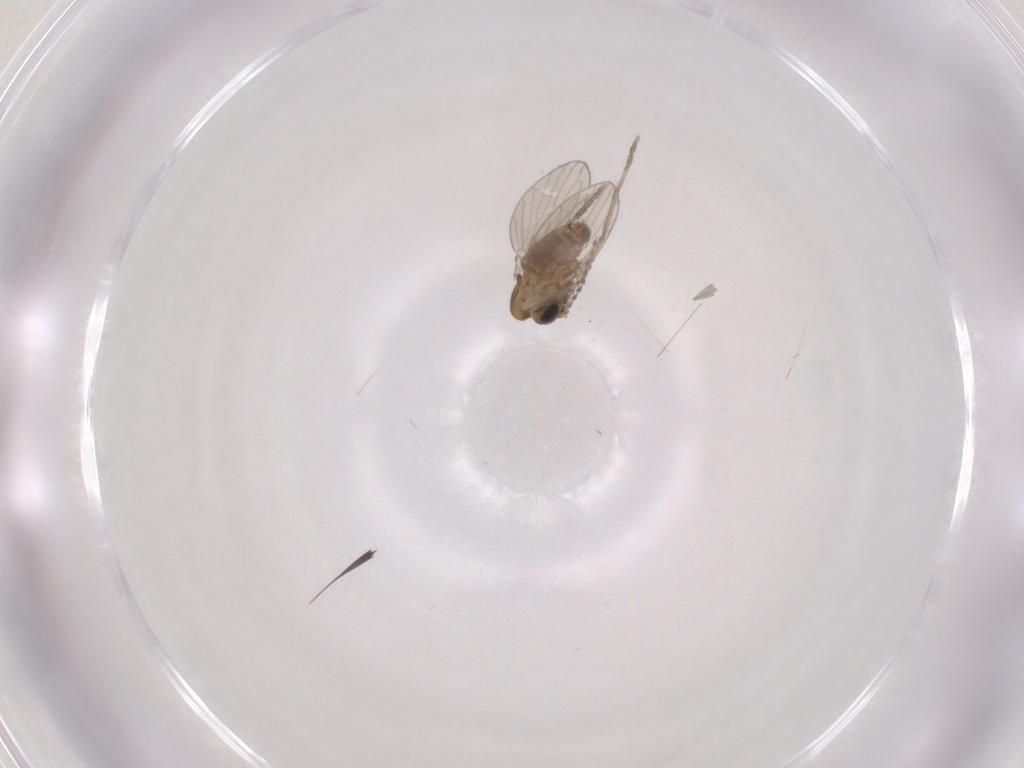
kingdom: Animalia
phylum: Arthropoda
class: Insecta
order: Diptera
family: Psychodidae
